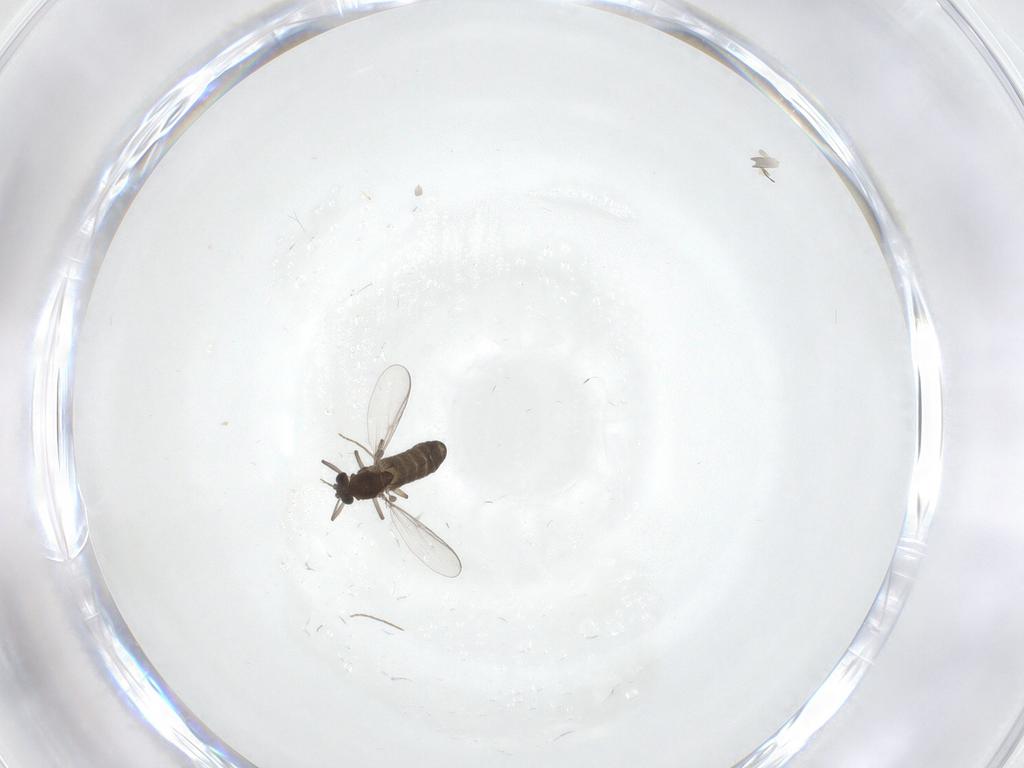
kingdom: Animalia
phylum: Arthropoda
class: Insecta
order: Diptera
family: Chironomidae
